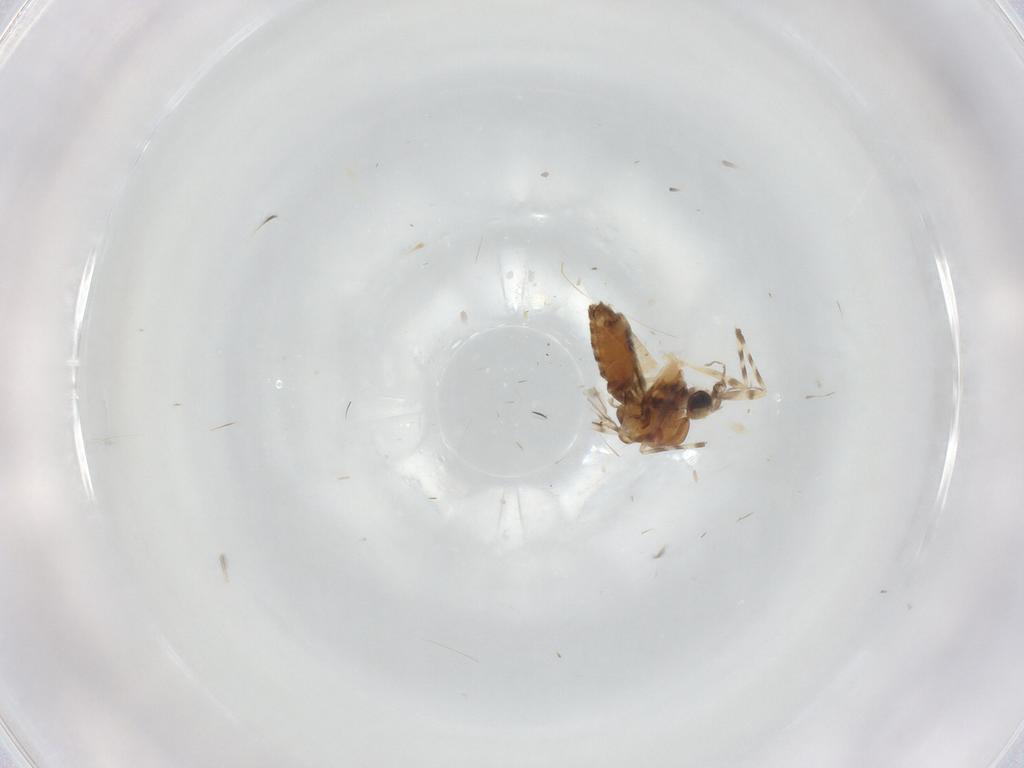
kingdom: Animalia
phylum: Arthropoda
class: Insecta
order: Diptera
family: Chironomidae
